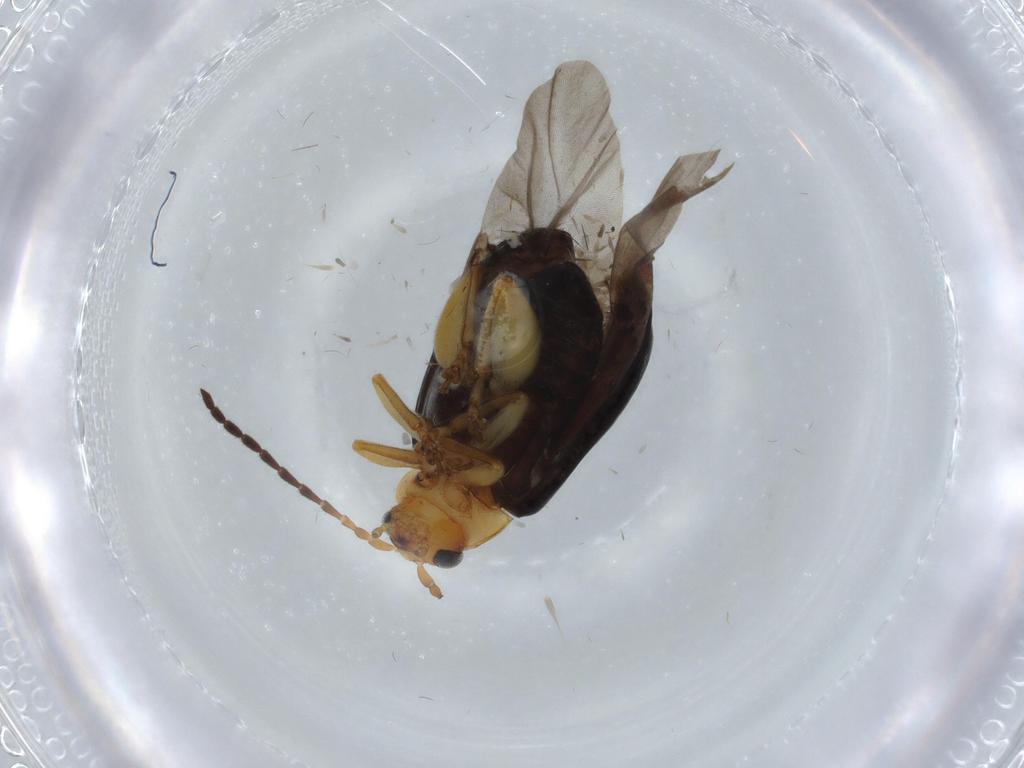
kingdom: Animalia
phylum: Arthropoda
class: Insecta
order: Coleoptera
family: Chrysomelidae
